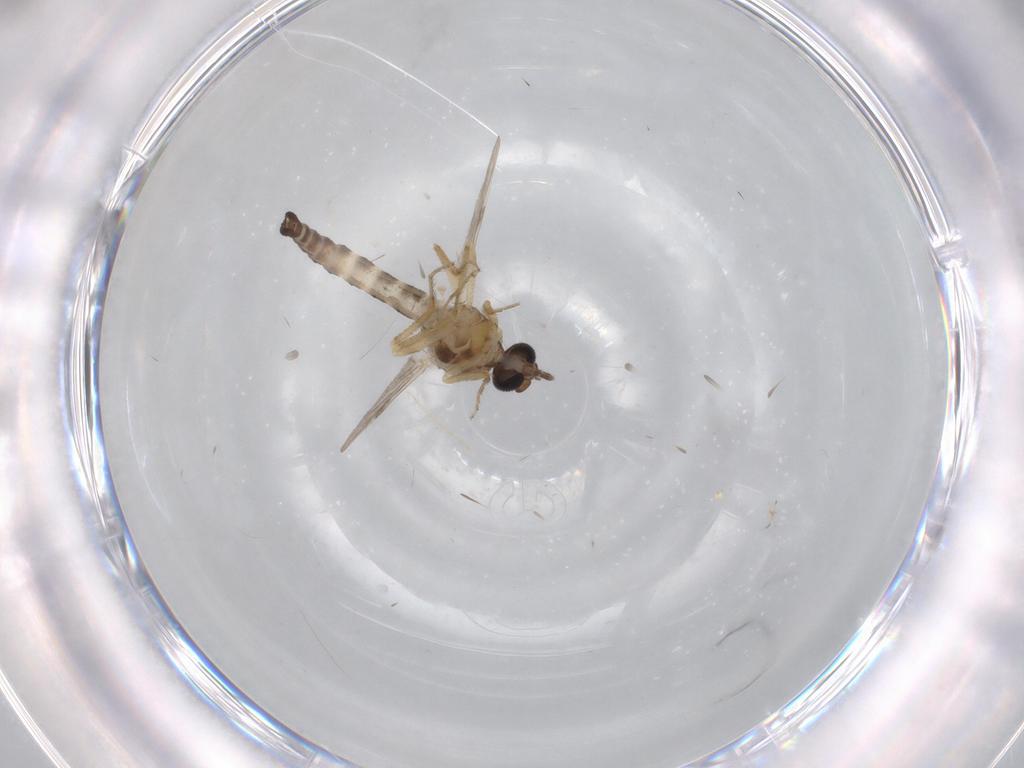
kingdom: Animalia
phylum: Arthropoda
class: Insecta
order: Diptera
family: Ceratopogonidae
